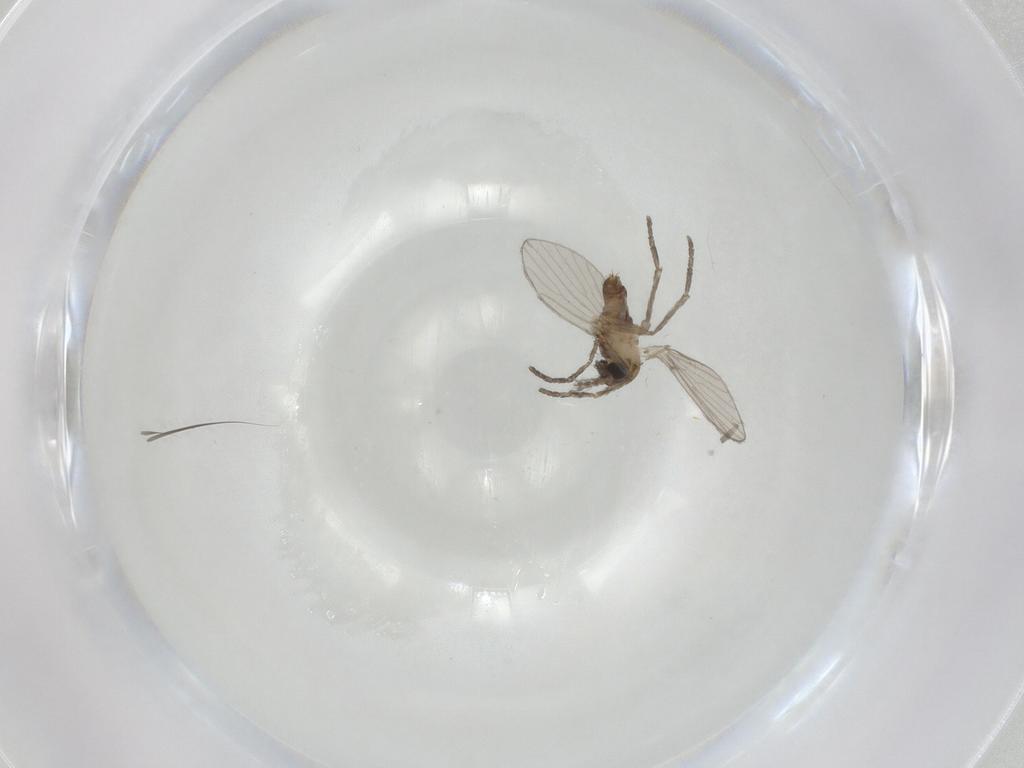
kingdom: Animalia
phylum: Arthropoda
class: Insecta
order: Diptera
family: Psychodidae
